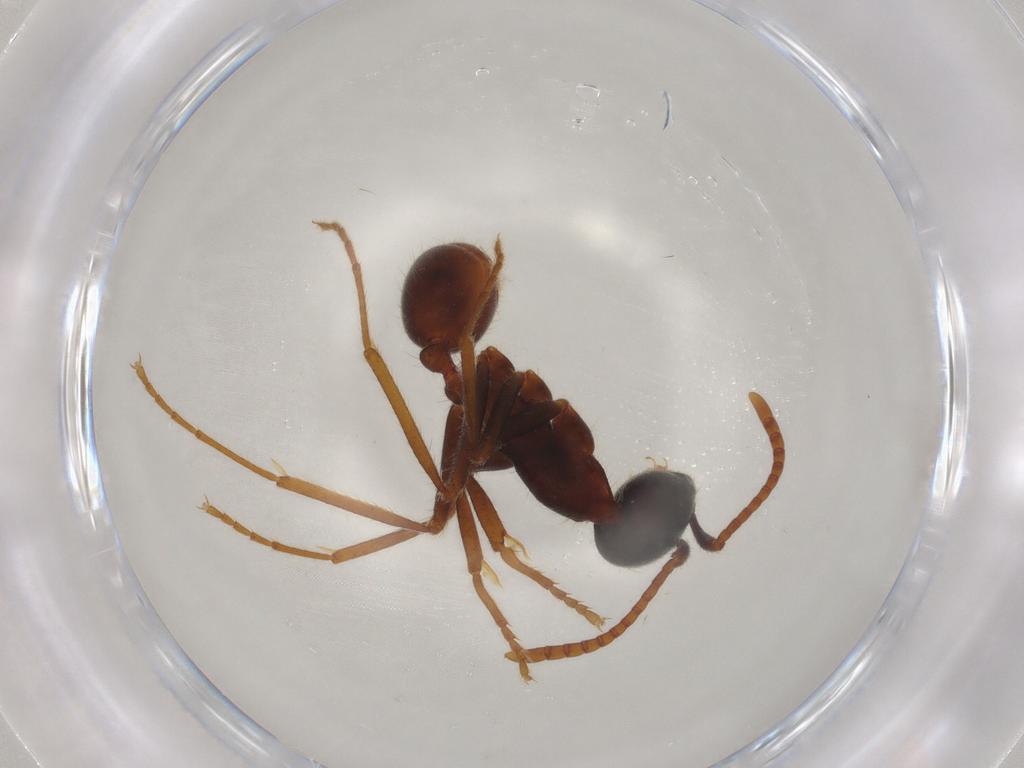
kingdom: Animalia
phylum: Arthropoda
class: Insecta
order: Hymenoptera
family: Formicidae
